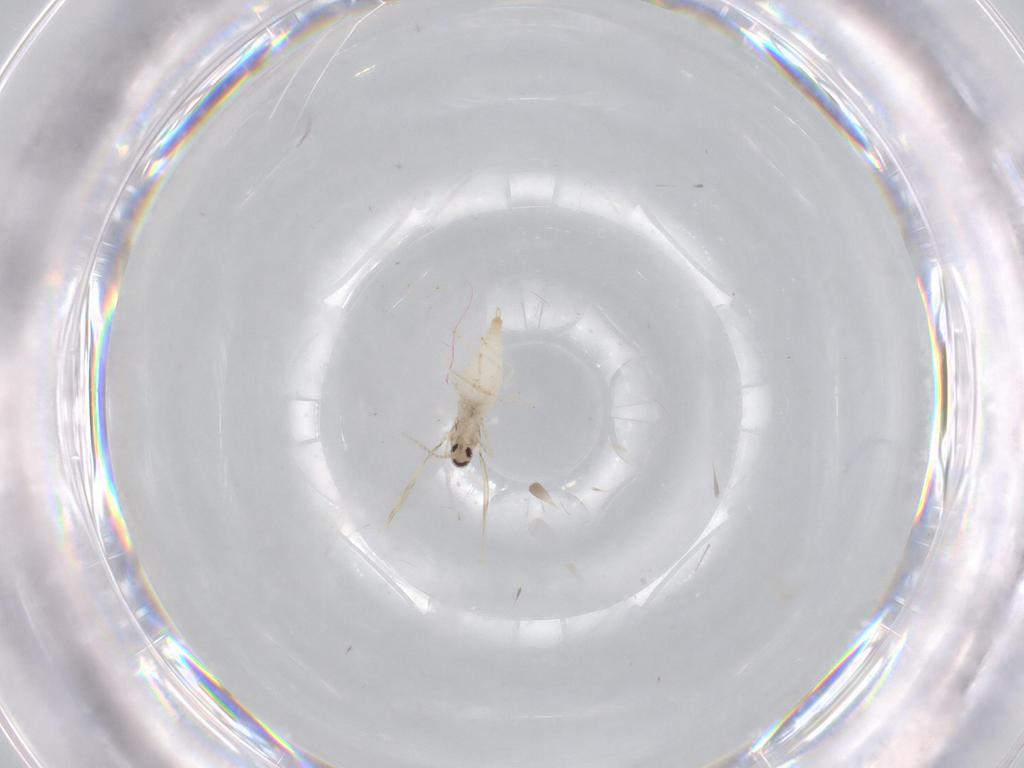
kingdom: Animalia
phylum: Arthropoda
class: Insecta
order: Diptera
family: Cecidomyiidae
